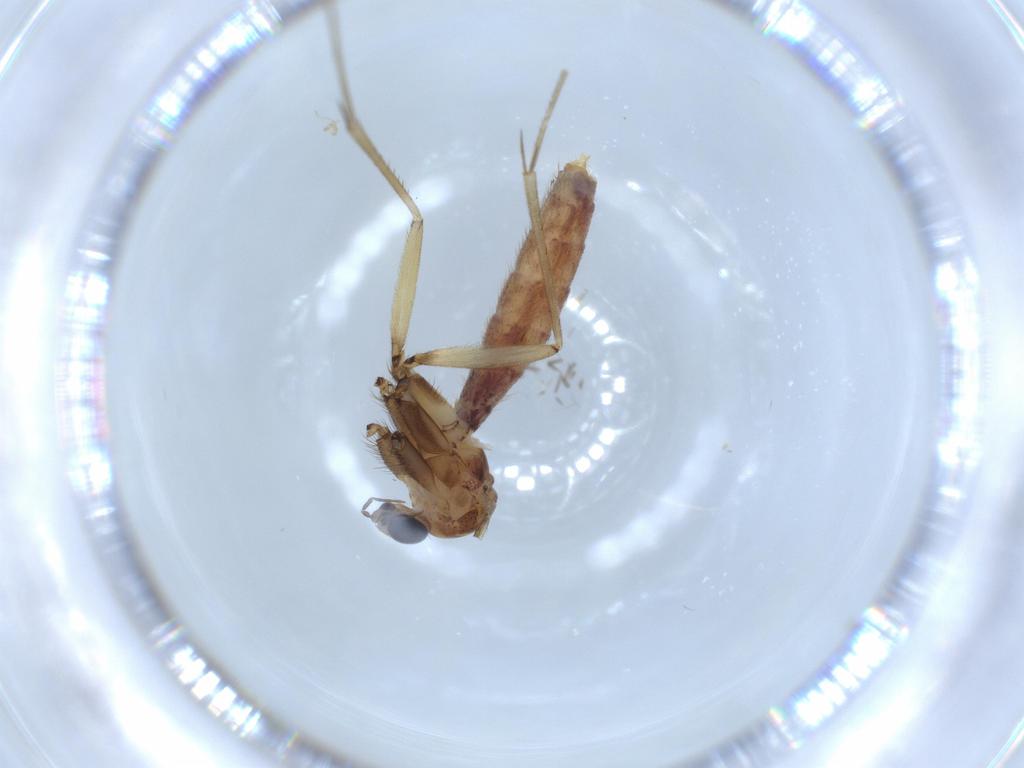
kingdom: Animalia
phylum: Arthropoda
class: Insecta
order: Diptera
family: Mycetophilidae
